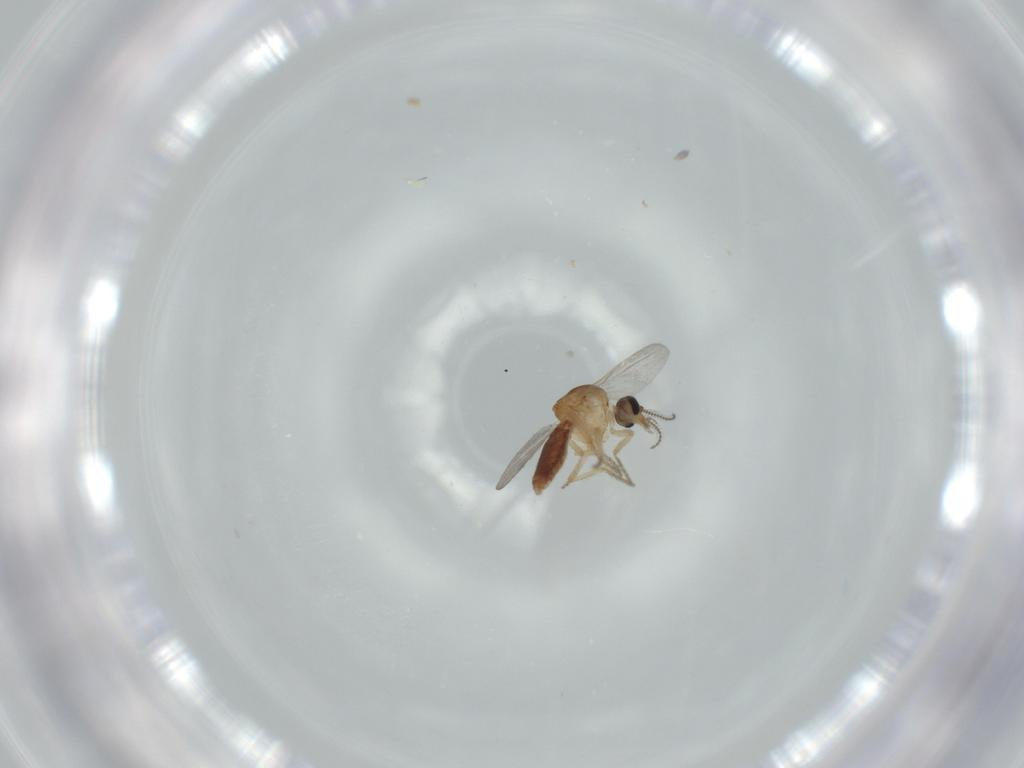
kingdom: Animalia
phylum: Arthropoda
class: Insecta
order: Diptera
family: Ceratopogonidae
